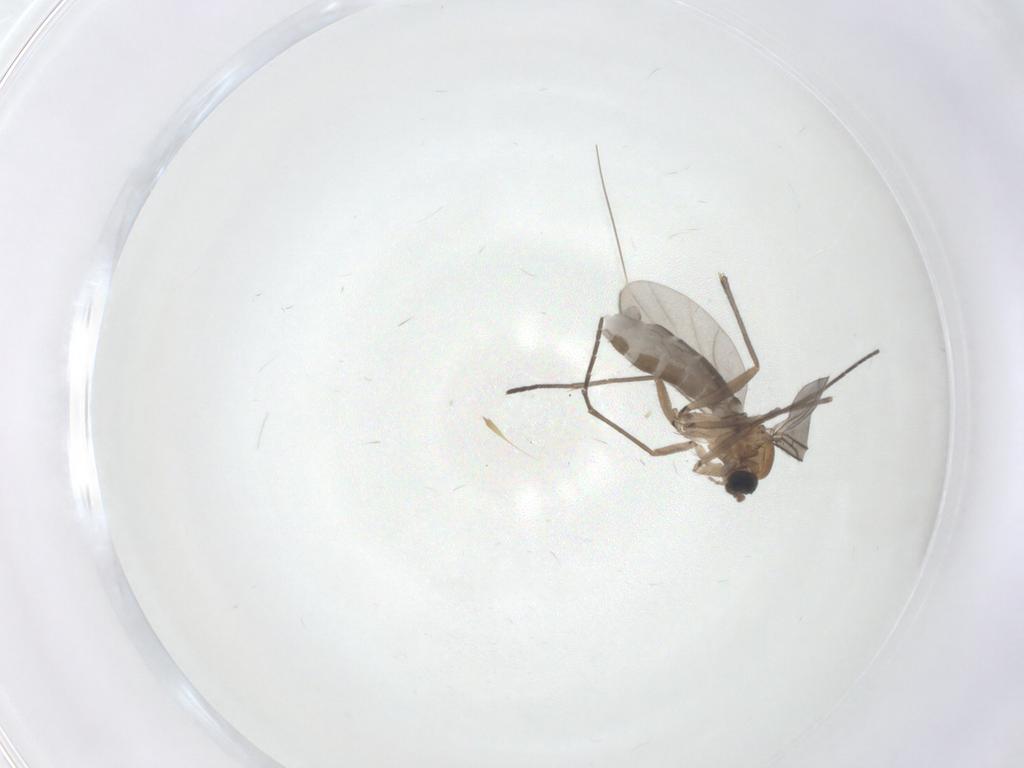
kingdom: Animalia
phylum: Arthropoda
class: Insecta
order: Diptera
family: Sciaridae
